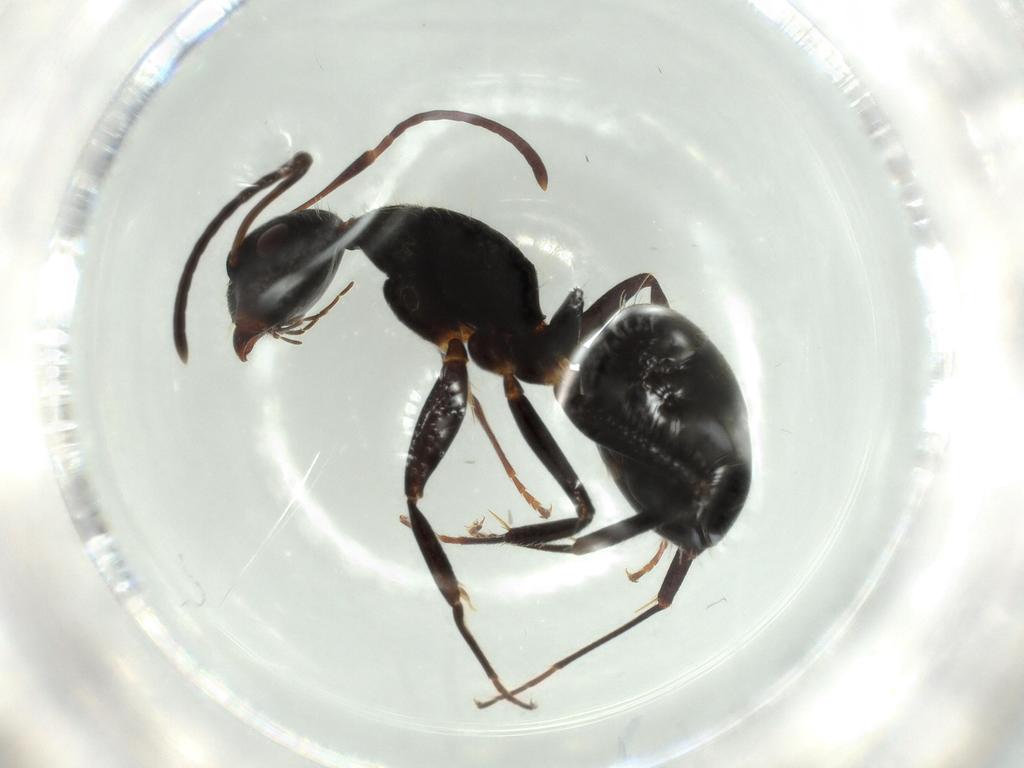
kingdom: Animalia
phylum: Arthropoda
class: Insecta
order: Hymenoptera
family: Formicidae
